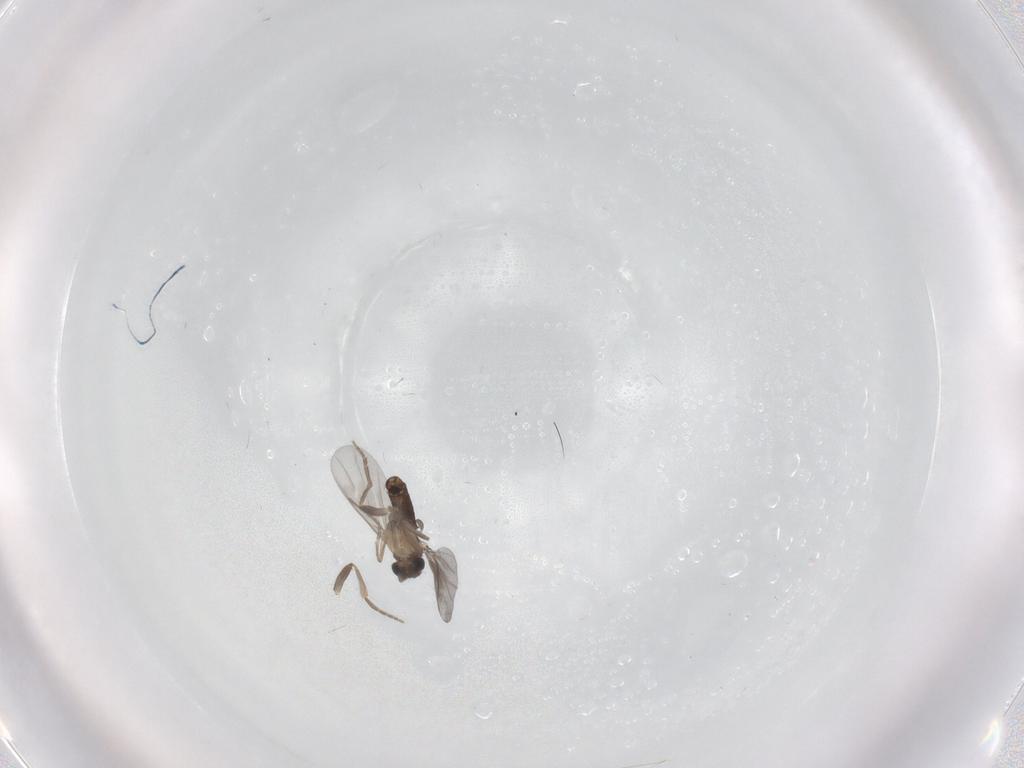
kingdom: Animalia
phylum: Arthropoda
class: Insecta
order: Diptera
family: Cecidomyiidae
